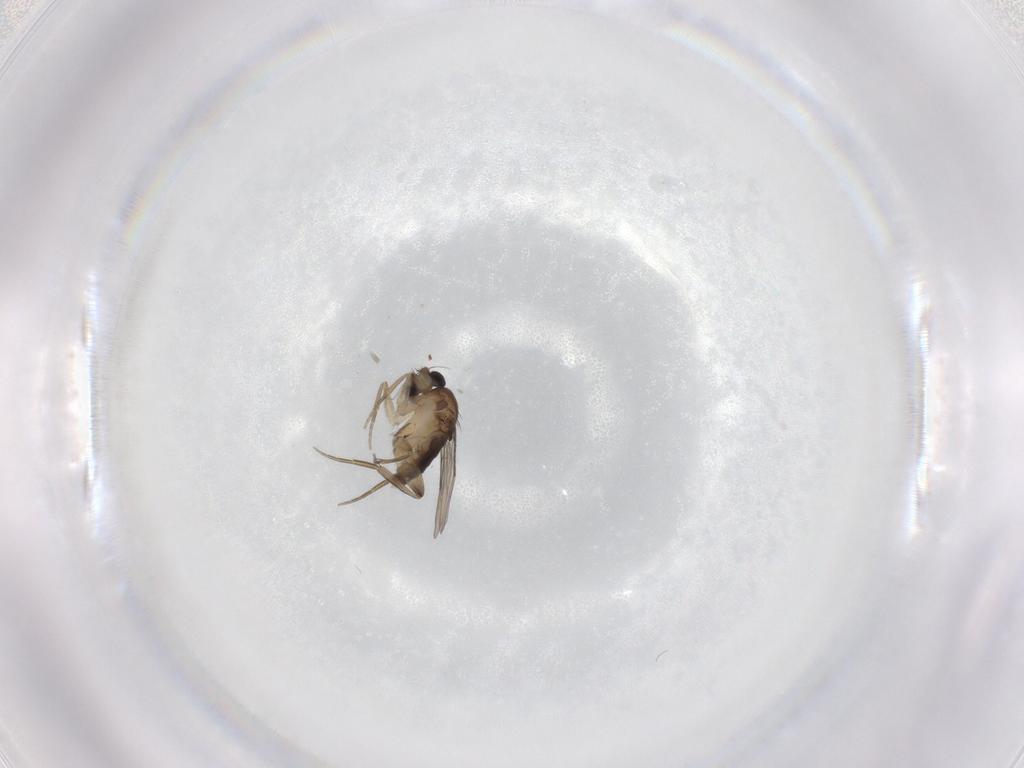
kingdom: Animalia
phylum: Arthropoda
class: Insecta
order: Diptera
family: Phoridae
